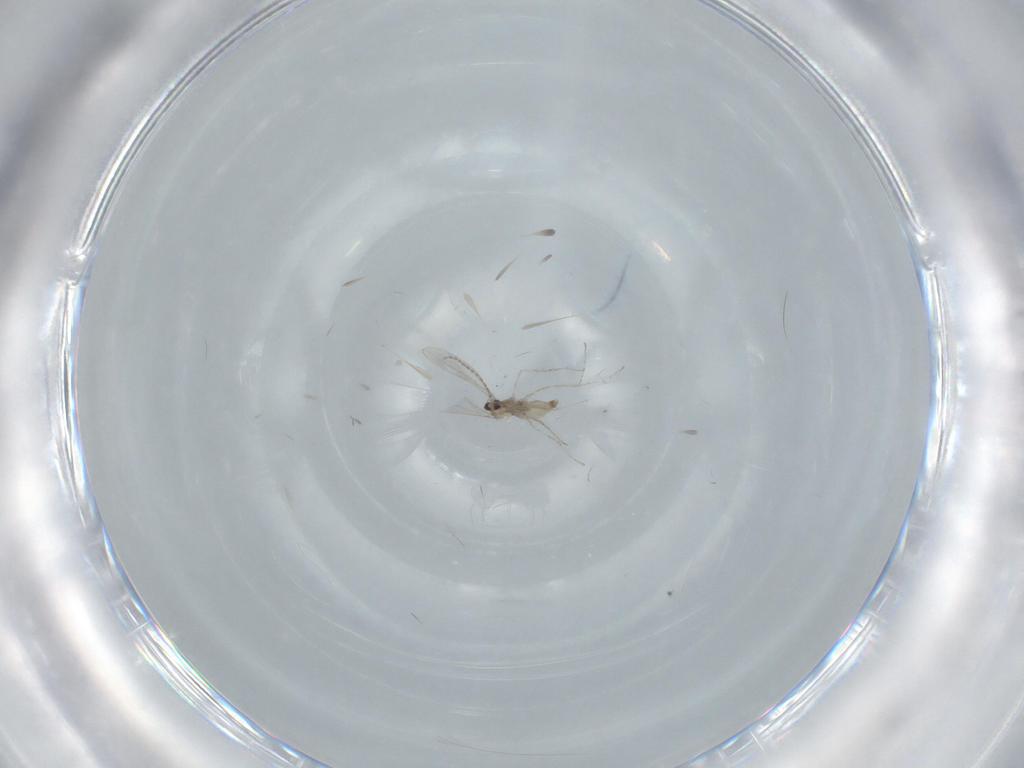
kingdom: Animalia
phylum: Arthropoda
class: Insecta
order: Diptera
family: Cecidomyiidae
